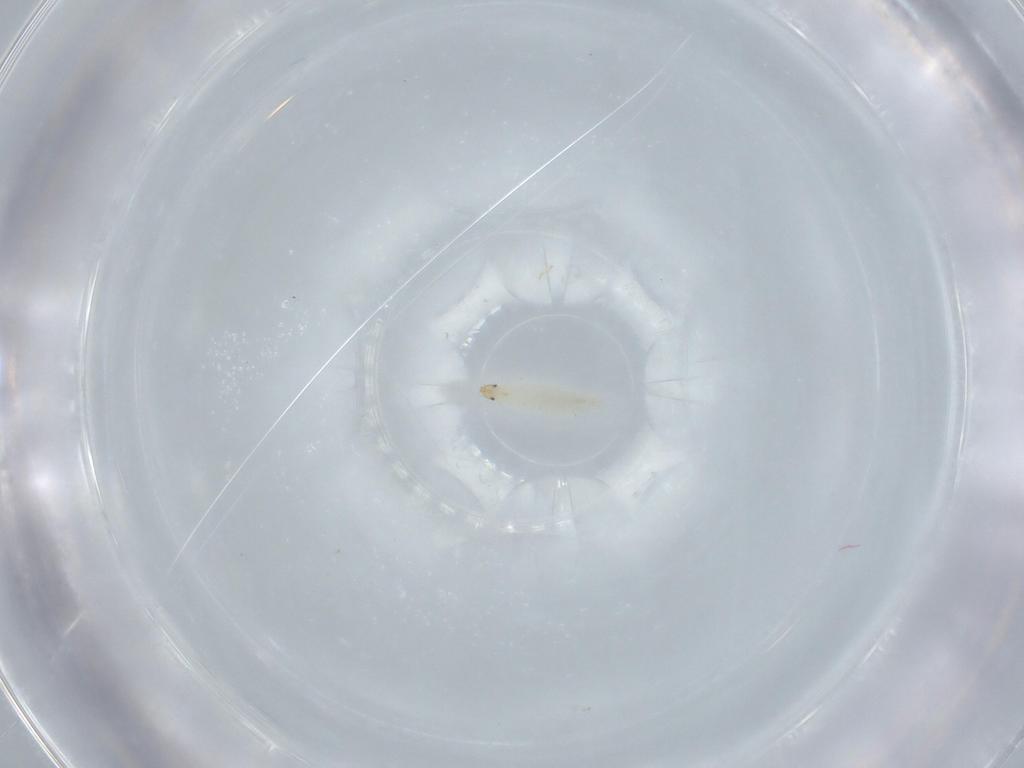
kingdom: Animalia
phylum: Arthropoda
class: Insecta
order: Diptera
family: Cecidomyiidae
